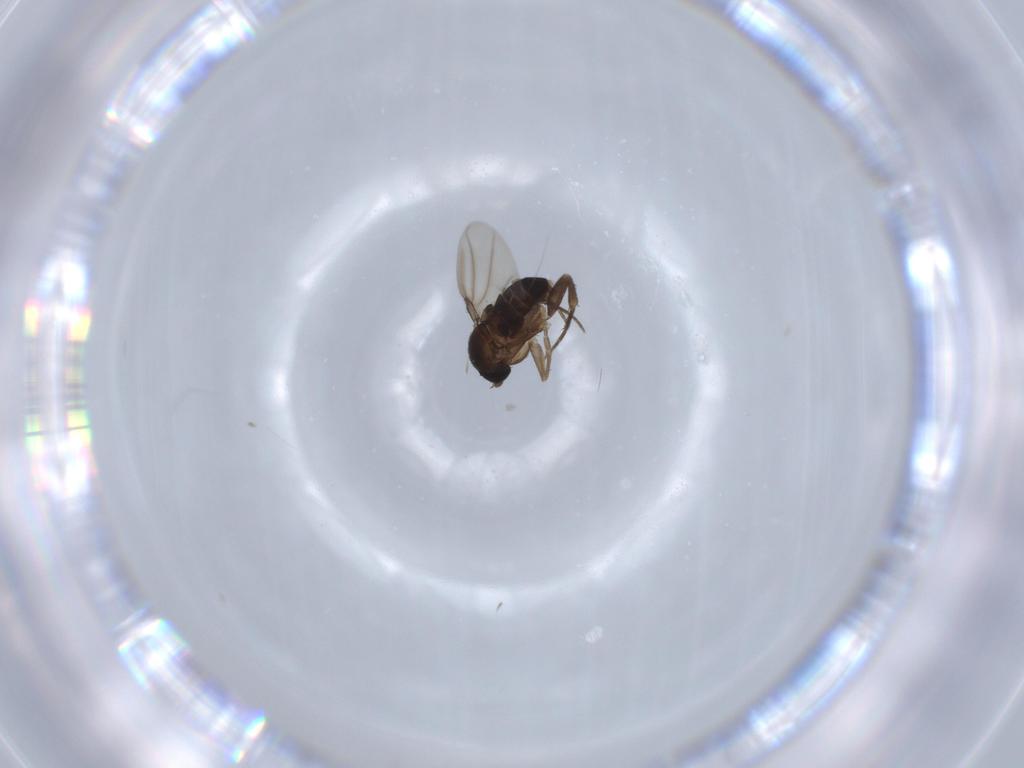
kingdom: Animalia
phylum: Arthropoda
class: Insecta
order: Diptera
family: Phoridae
